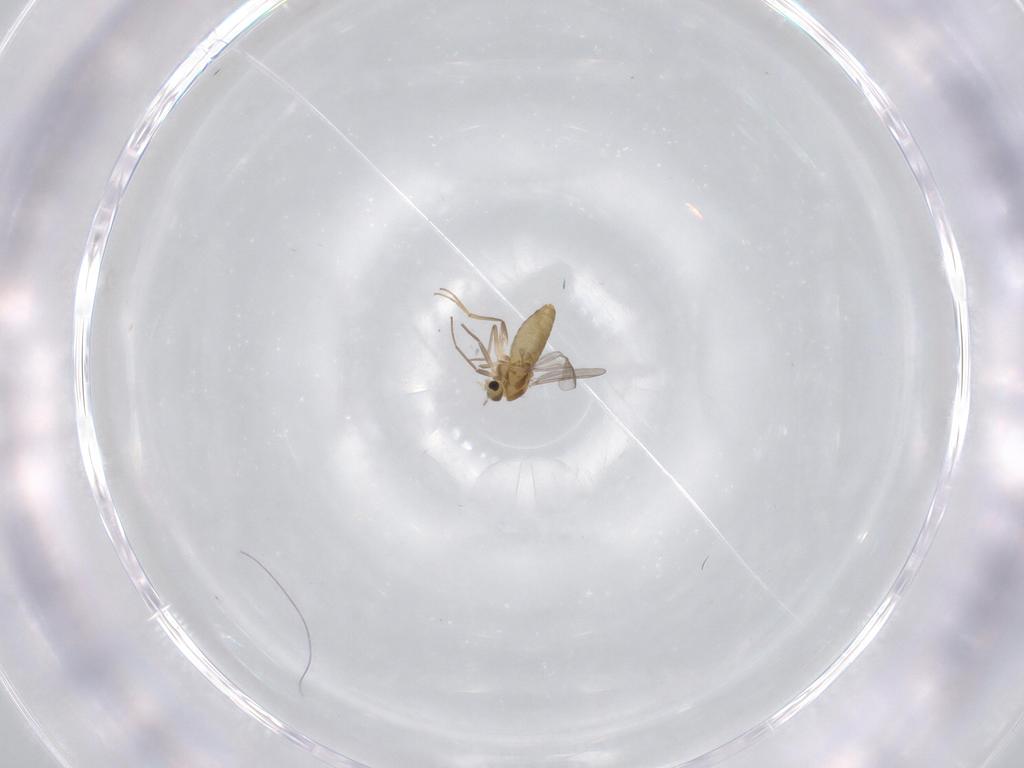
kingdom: Animalia
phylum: Arthropoda
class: Insecta
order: Diptera
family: Chironomidae
